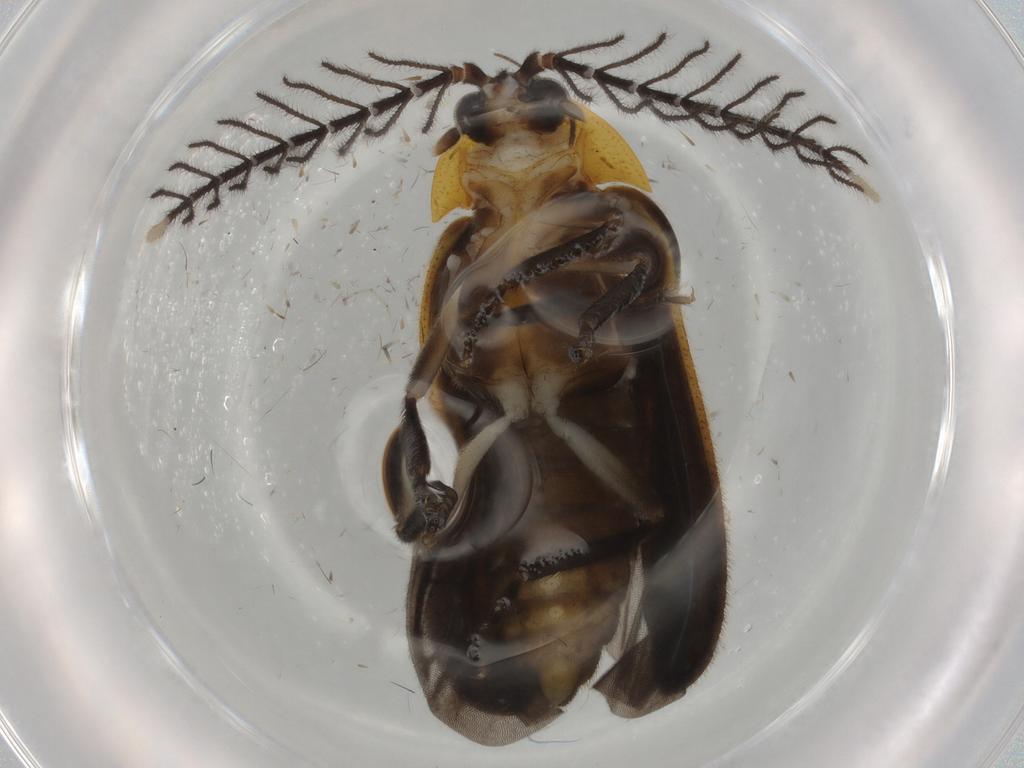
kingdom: Animalia
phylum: Arthropoda
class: Insecta
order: Coleoptera
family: Lampyridae
